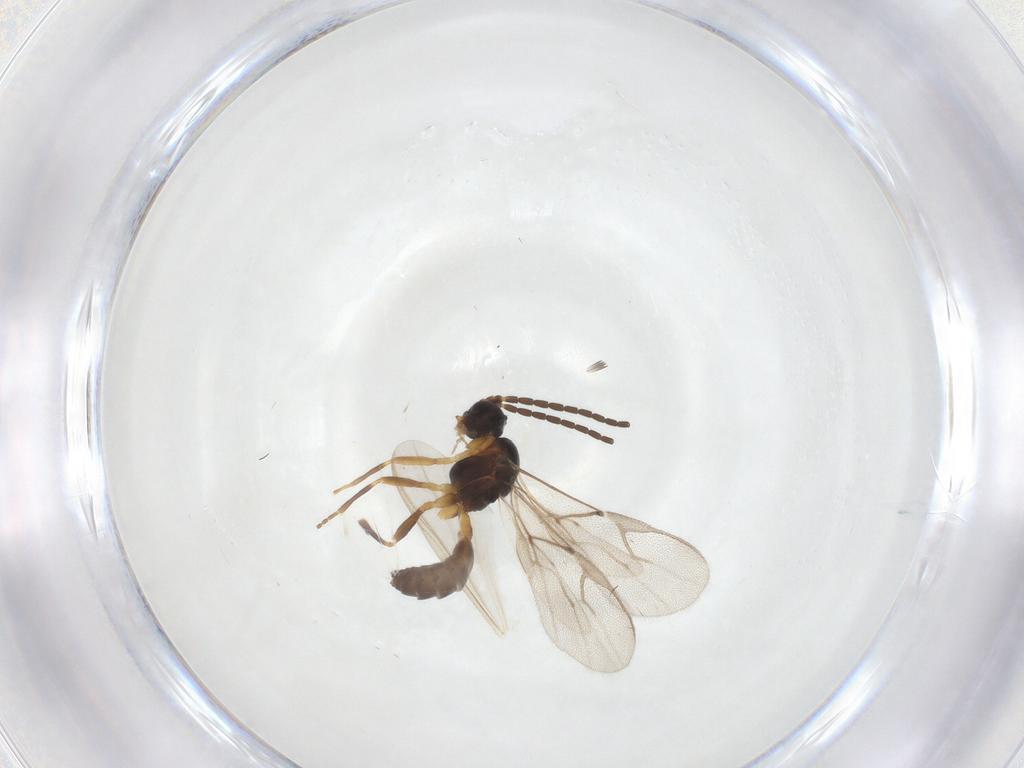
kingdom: Animalia
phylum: Arthropoda
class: Insecta
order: Hymenoptera
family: Braconidae
